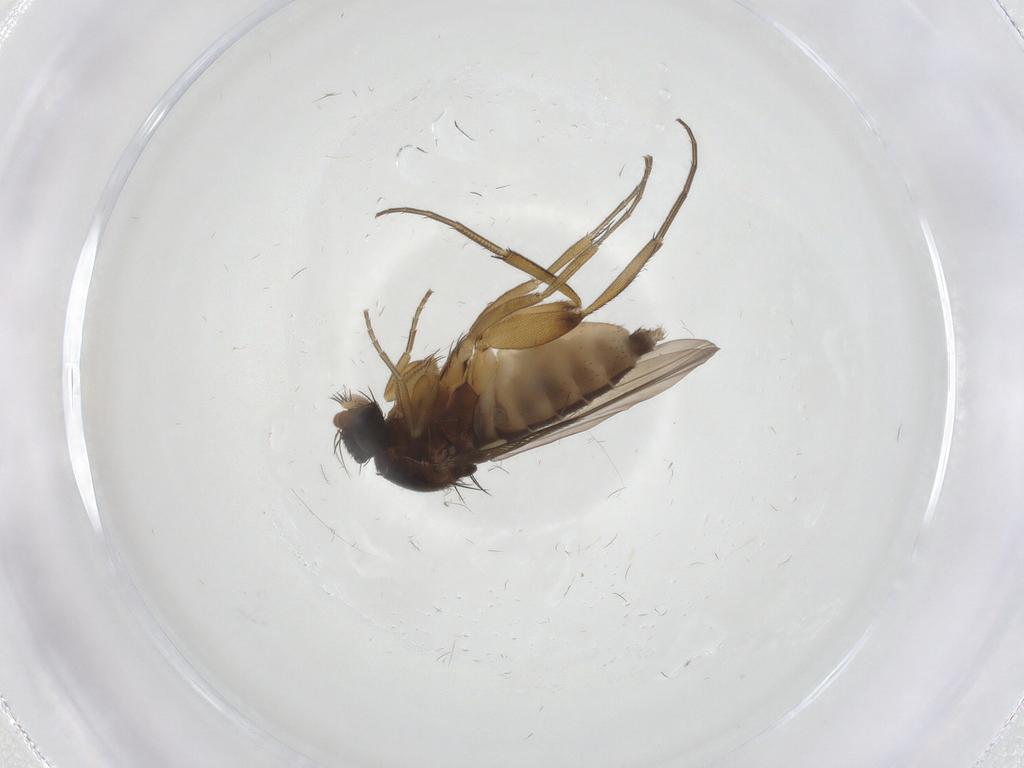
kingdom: Animalia
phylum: Arthropoda
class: Insecta
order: Diptera
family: Phoridae
